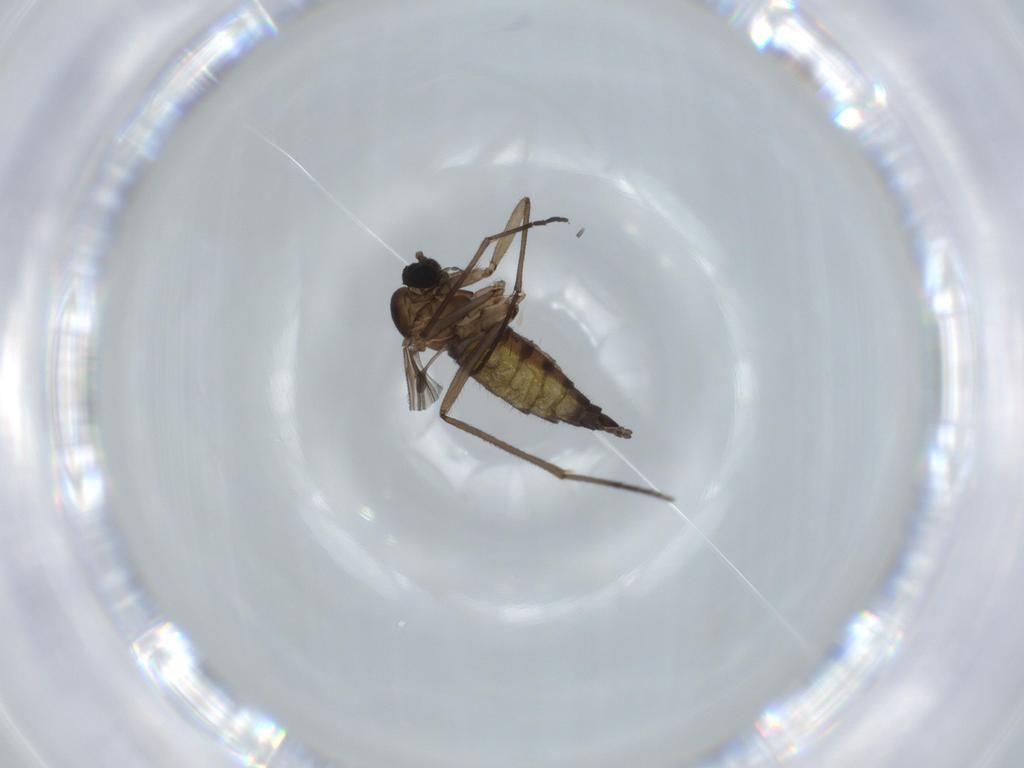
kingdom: Animalia
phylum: Arthropoda
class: Insecta
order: Diptera
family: Sciaridae
